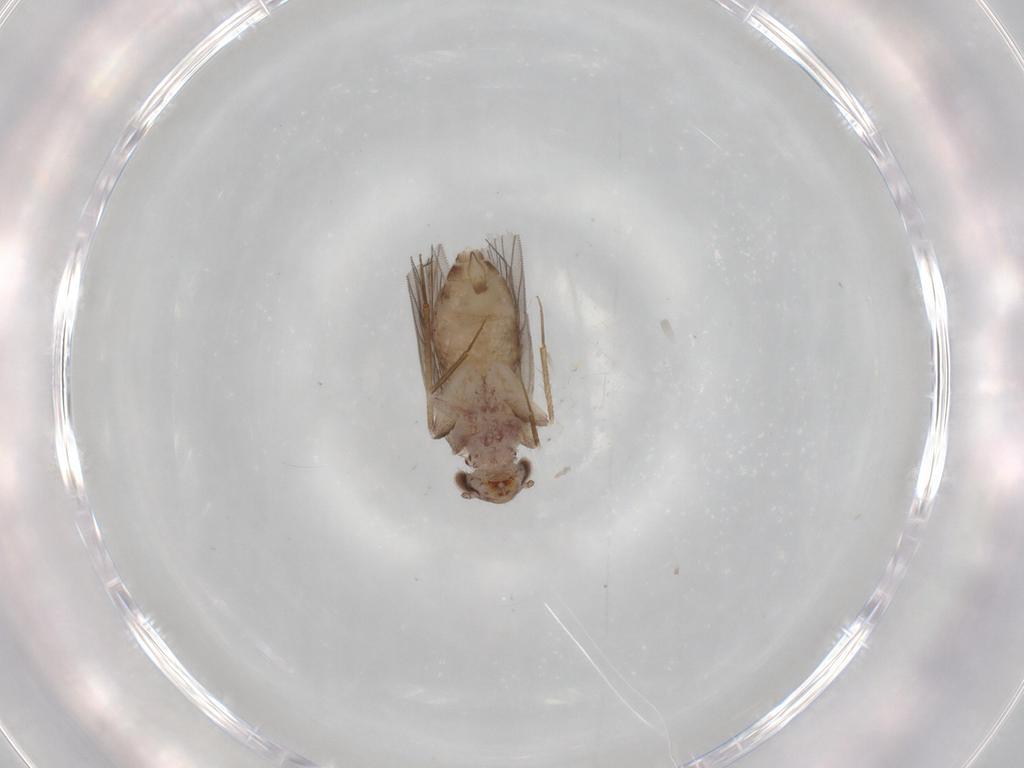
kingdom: Animalia
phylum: Arthropoda
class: Insecta
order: Psocodea
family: Lepidopsocidae
